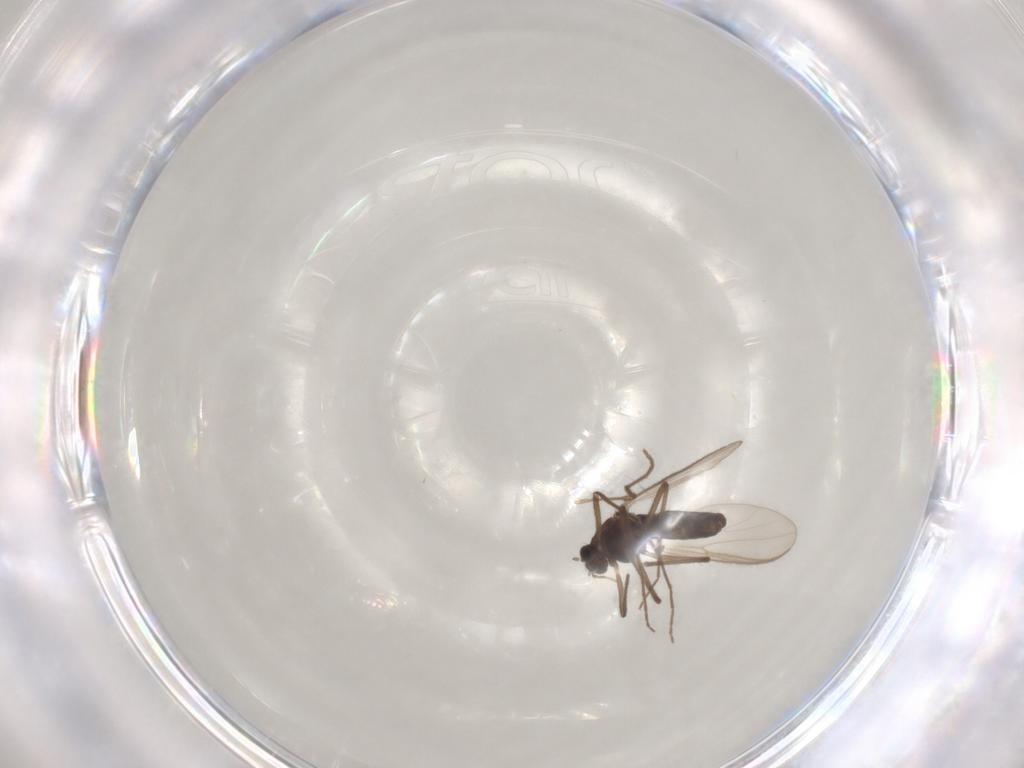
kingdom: Animalia
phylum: Arthropoda
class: Insecta
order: Diptera
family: Chironomidae
